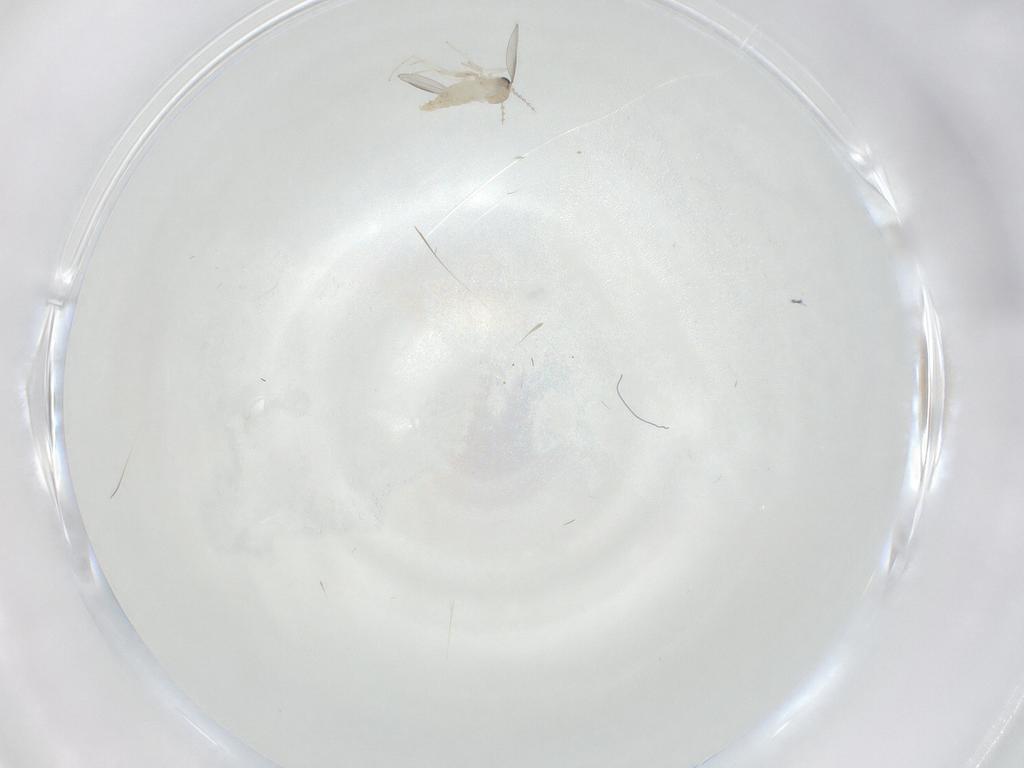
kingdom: Animalia
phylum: Arthropoda
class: Insecta
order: Diptera
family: Cecidomyiidae
